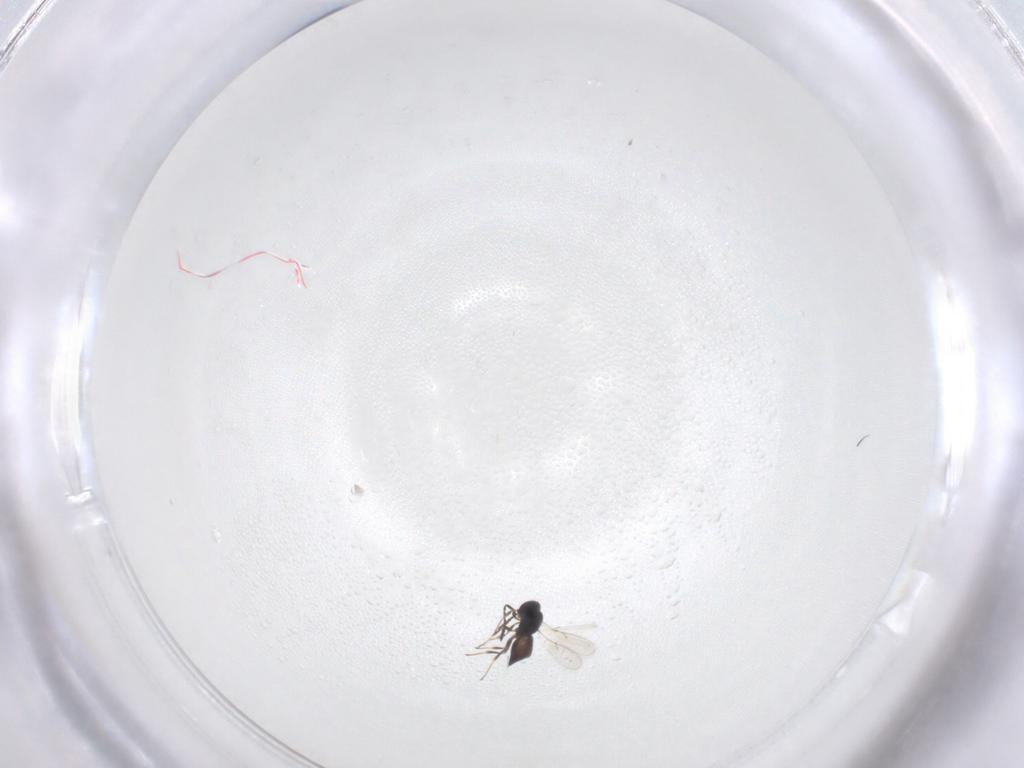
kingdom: Animalia
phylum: Arthropoda
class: Insecta
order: Hymenoptera
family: Scelionidae
